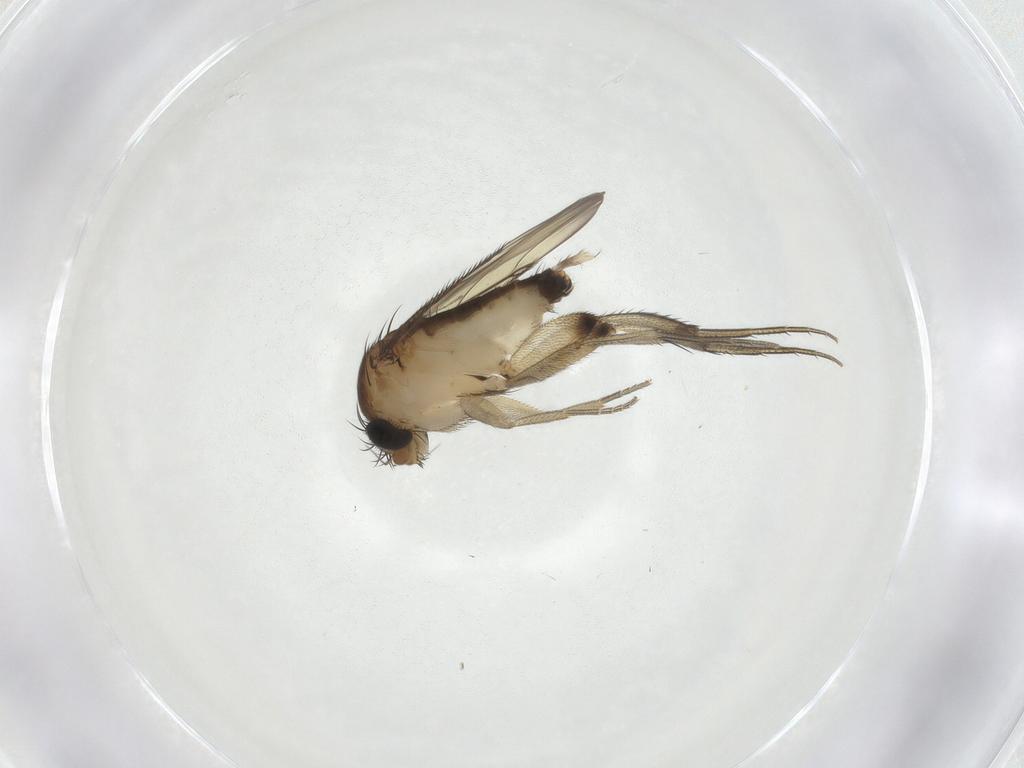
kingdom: Animalia
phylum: Arthropoda
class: Insecta
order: Diptera
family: Phoridae
